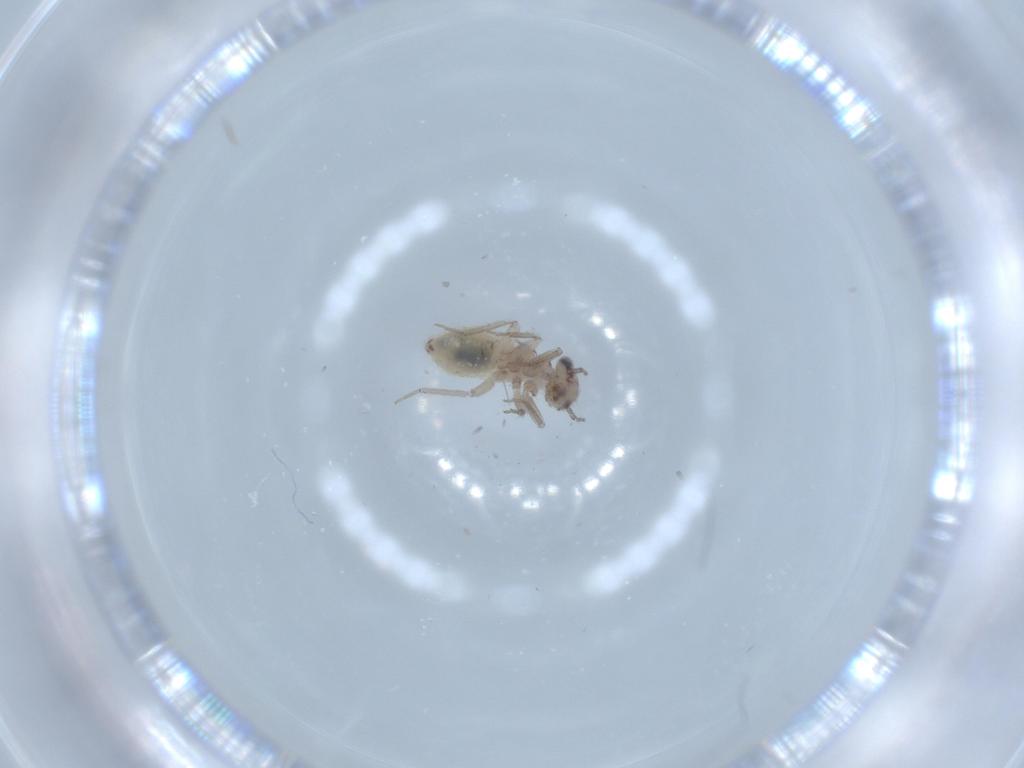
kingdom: Animalia
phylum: Arthropoda
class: Insecta
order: Psocodea
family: Lepidopsocidae
